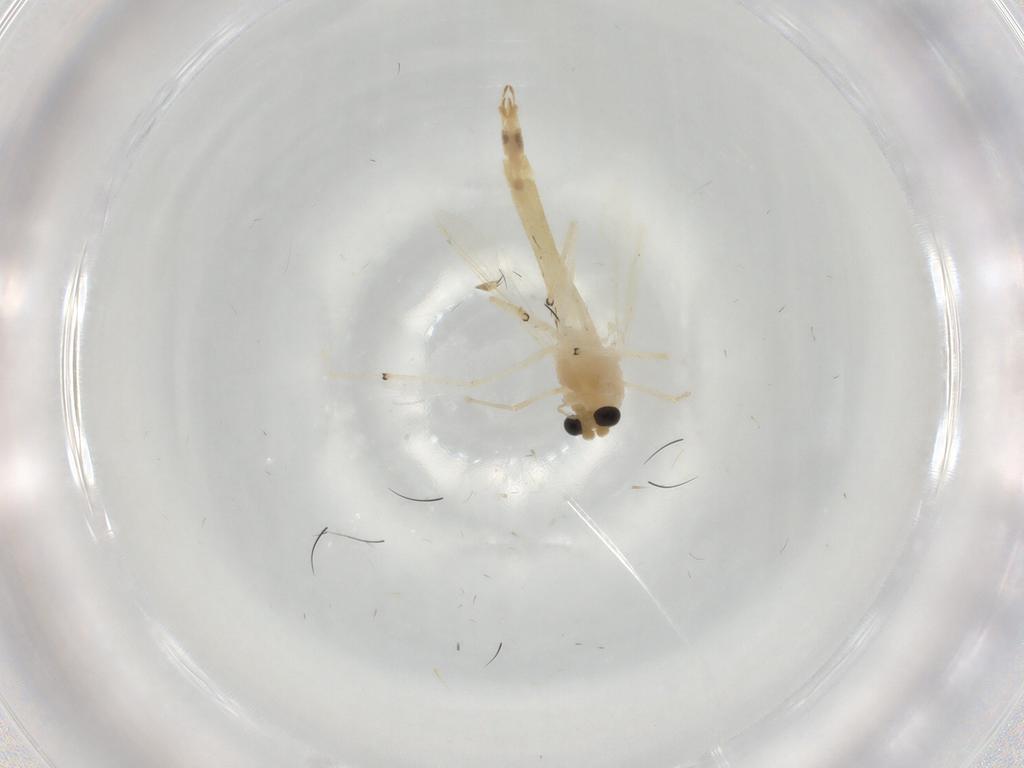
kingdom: Animalia
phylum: Arthropoda
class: Insecta
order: Diptera
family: Chironomidae
